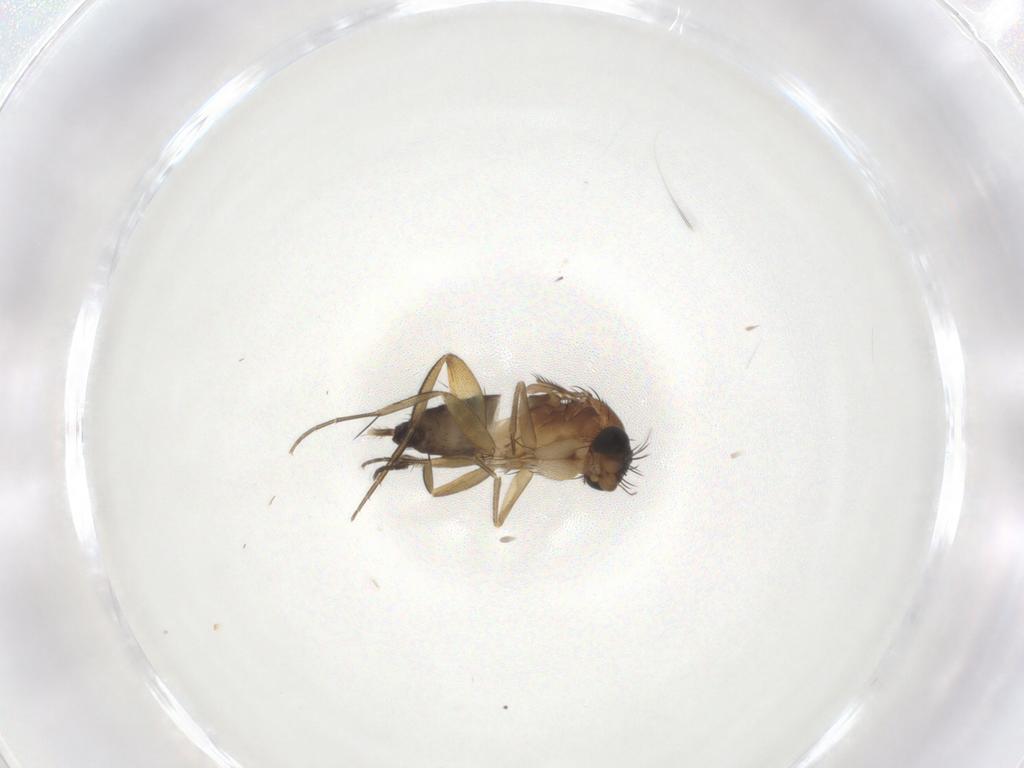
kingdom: Animalia
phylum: Arthropoda
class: Insecta
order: Diptera
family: Phoridae
